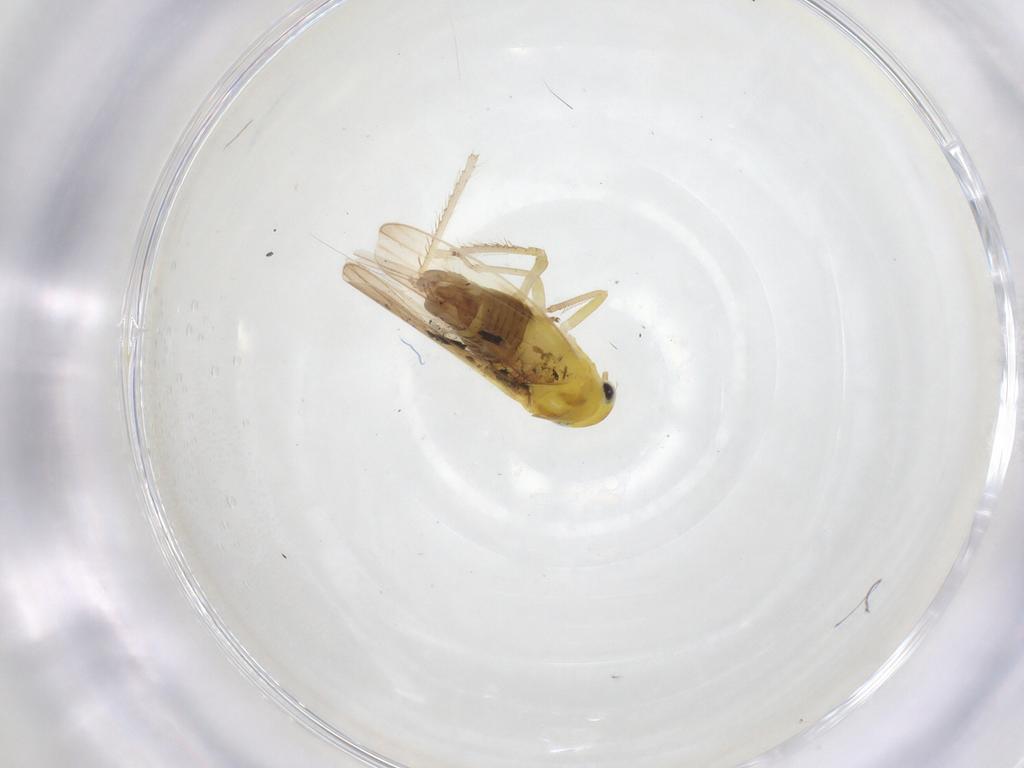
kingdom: Animalia
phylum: Arthropoda
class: Insecta
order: Hemiptera
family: Cicadellidae
